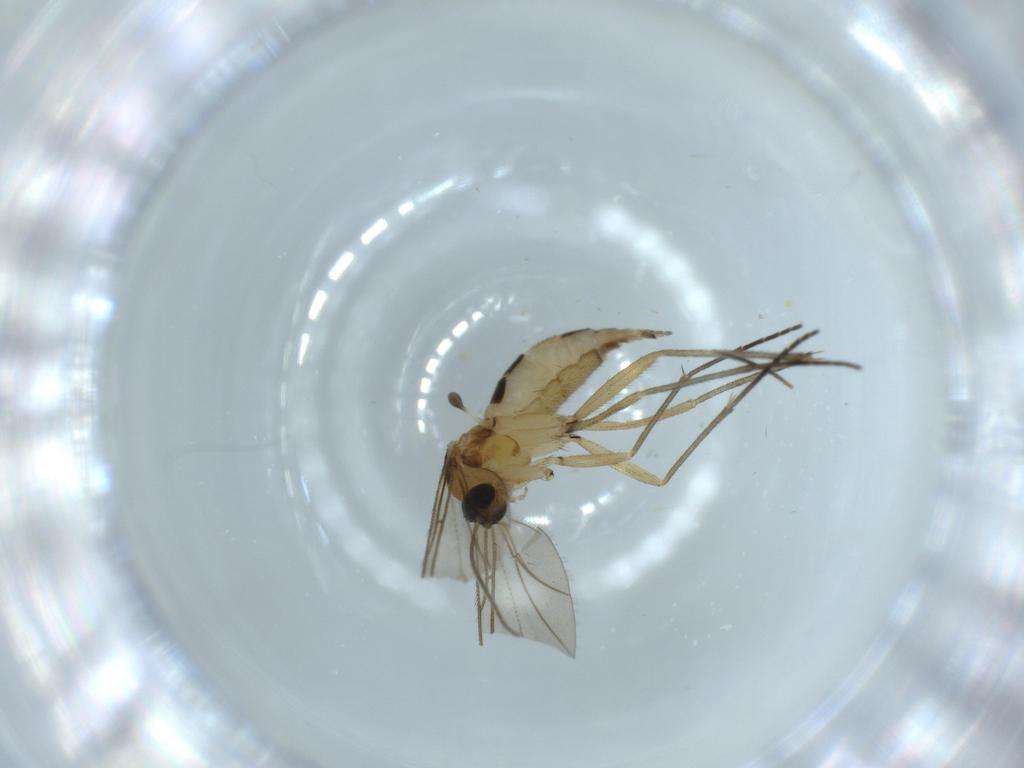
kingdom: Animalia
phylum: Arthropoda
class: Insecta
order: Diptera
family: Sciaridae
